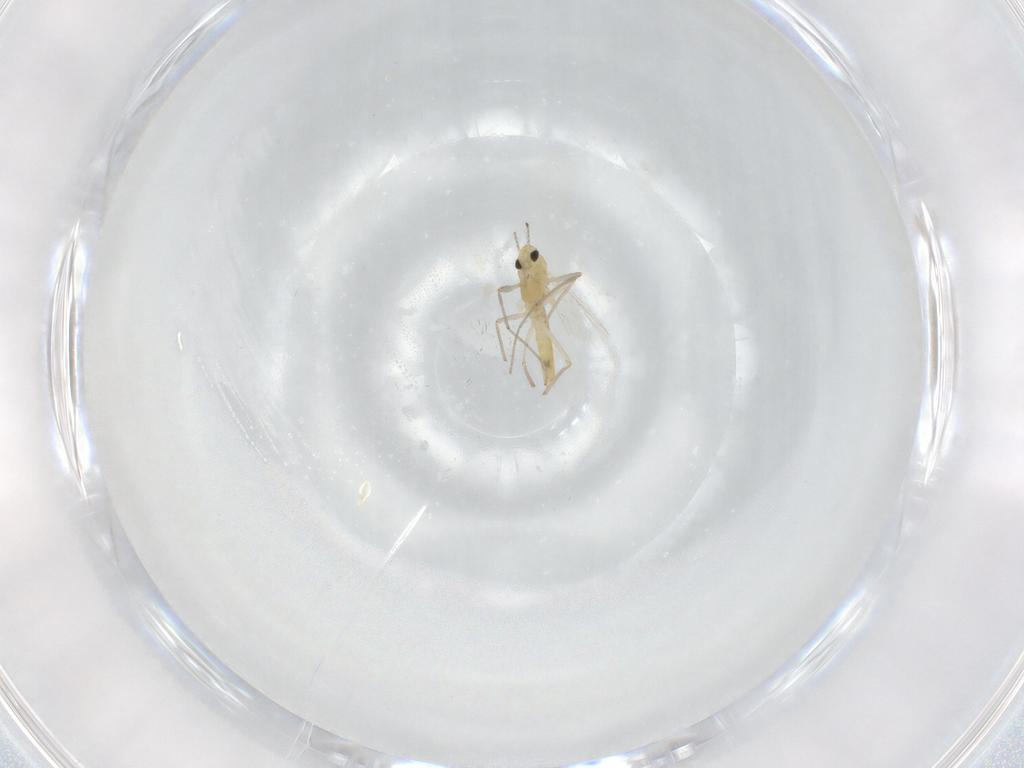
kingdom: Animalia
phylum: Arthropoda
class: Insecta
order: Diptera
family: Chironomidae
